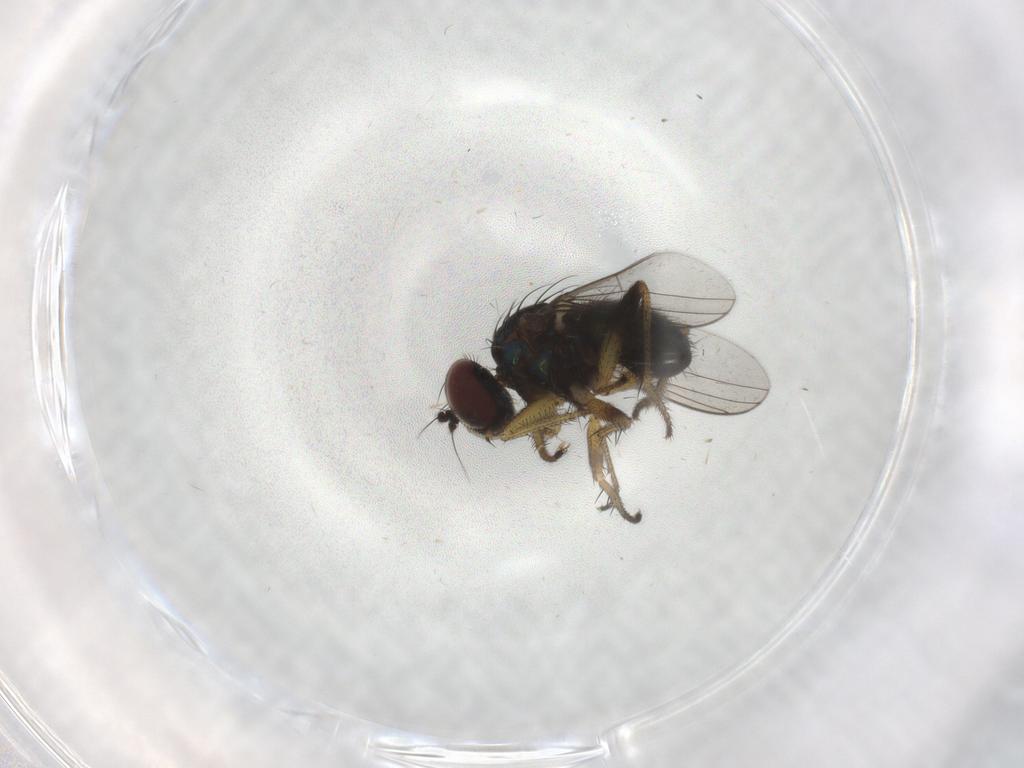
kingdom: Animalia
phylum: Arthropoda
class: Insecta
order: Diptera
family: Dolichopodidae
